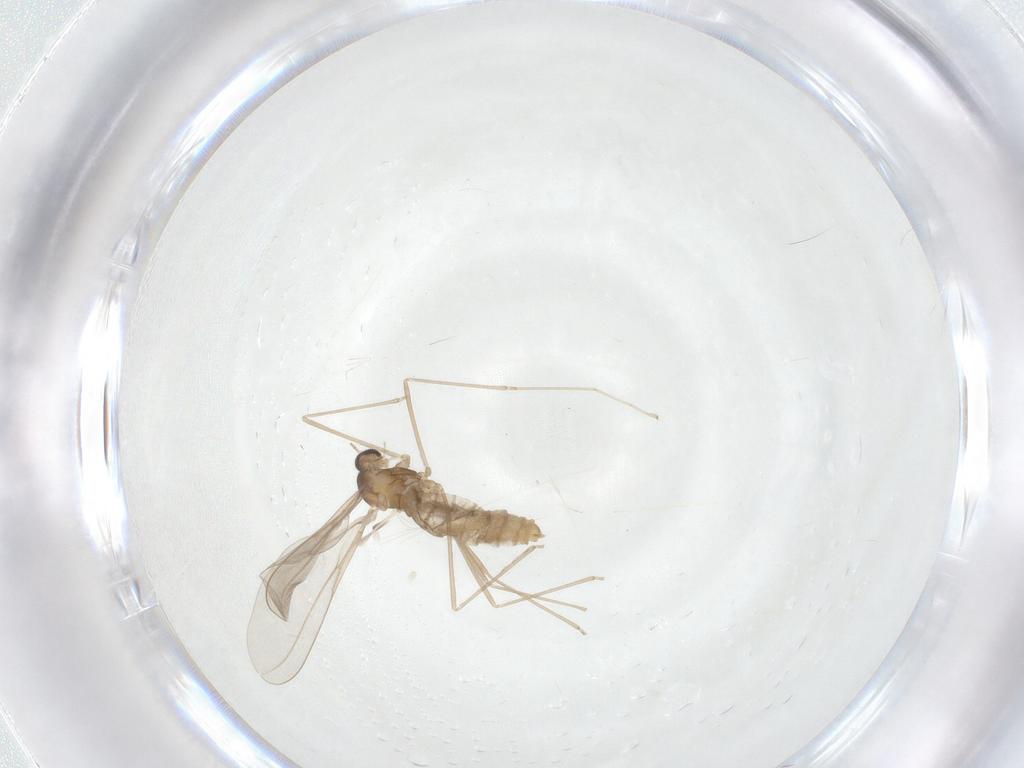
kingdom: Animalia
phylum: Arthropoda
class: Insecta
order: Diptera
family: Cecidomyiidae
